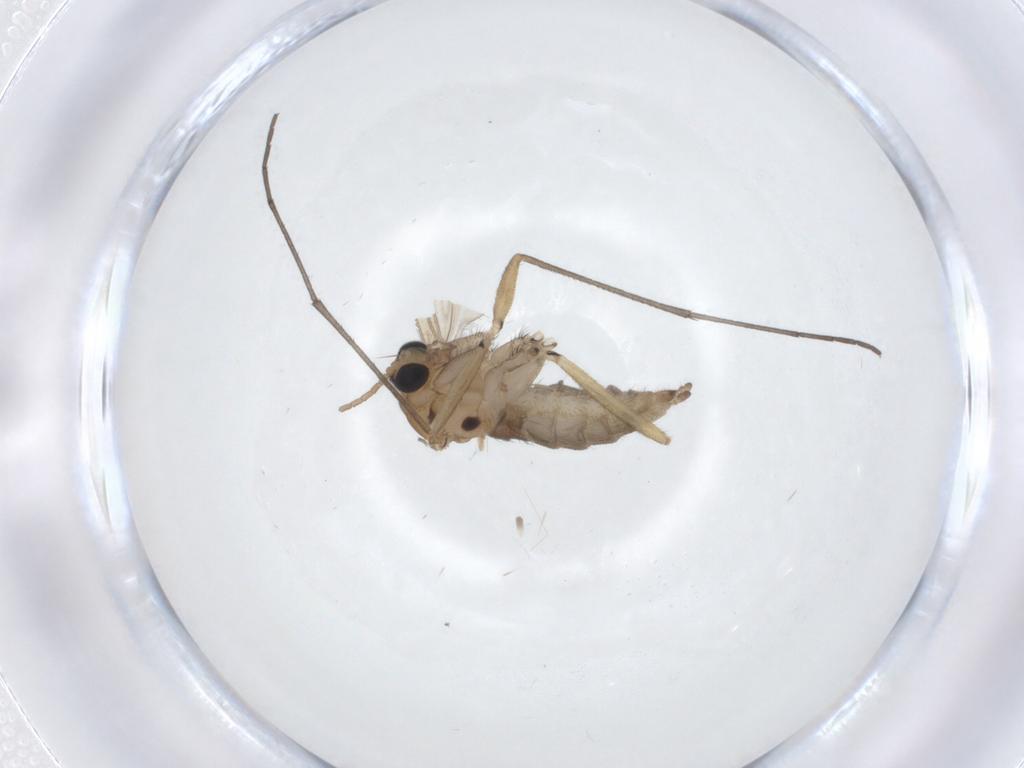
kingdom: Animalia
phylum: Arthropoda
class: Insecta
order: Diptera
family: Sciaridae
